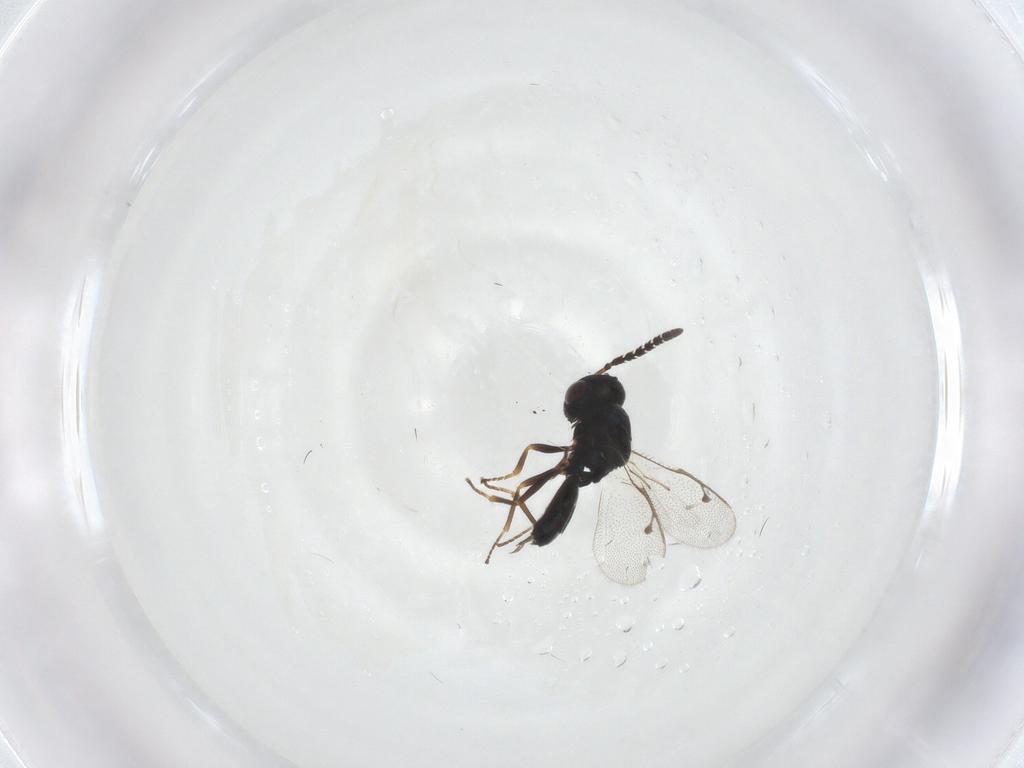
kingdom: Animalia
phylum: Arthropoda
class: Insecta
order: Hymenoptera
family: Agaonidae
